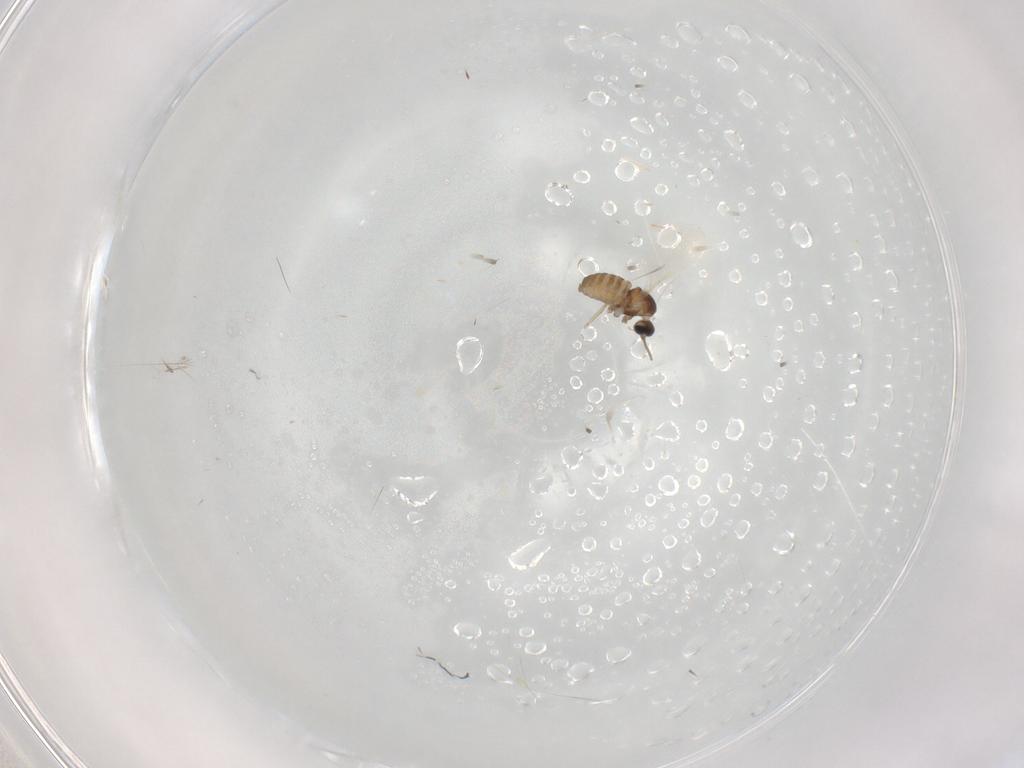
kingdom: Animalia
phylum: Arthropoda
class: Insecta
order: Diptera
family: Cecidomyiidae
